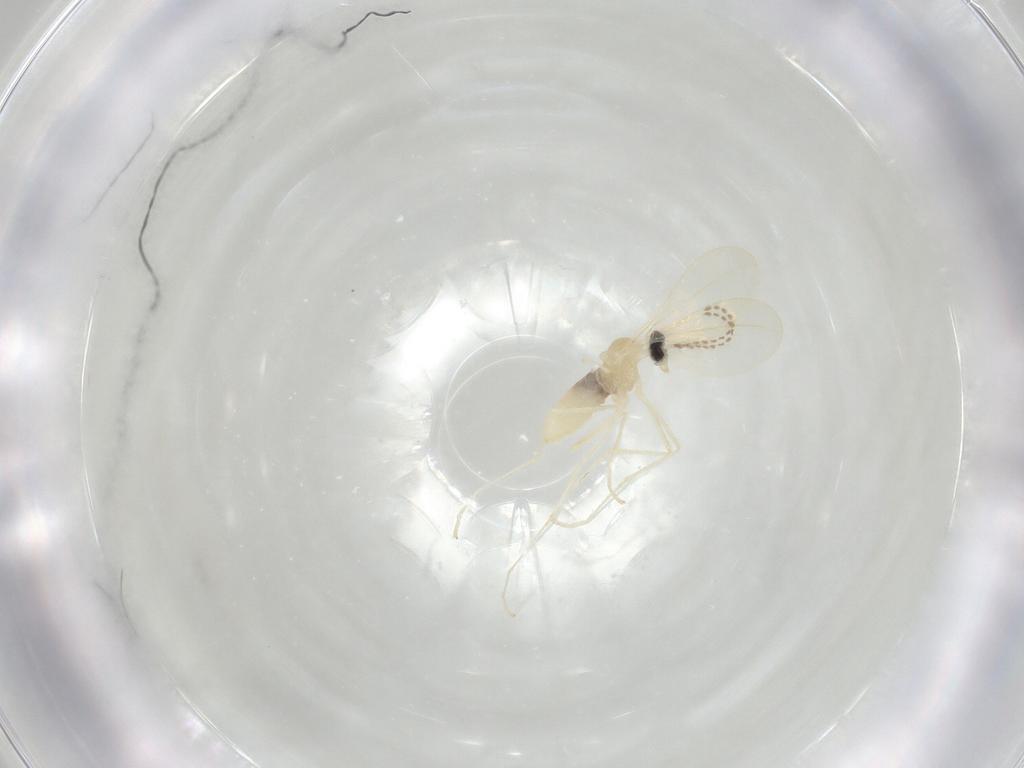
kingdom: Animalia
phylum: Arthropoda
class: Insecta
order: Diptera
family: Cecidomyiidae
